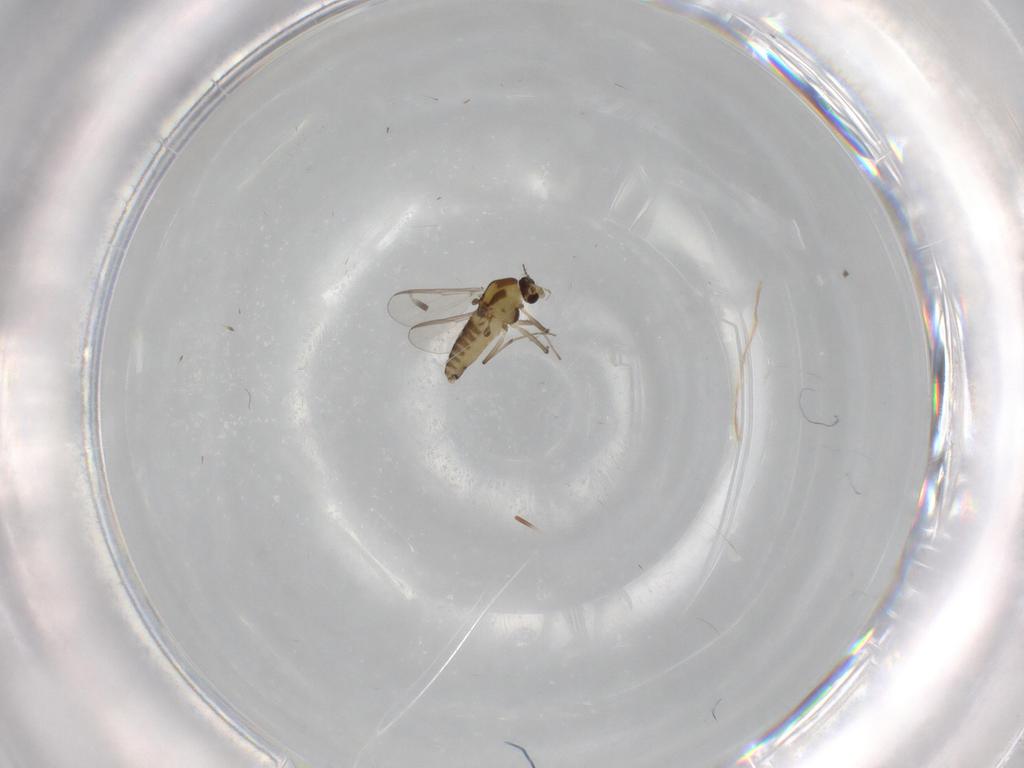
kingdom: Animalia
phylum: Arthropoda
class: Insecta
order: Diptera
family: Chironomidae
